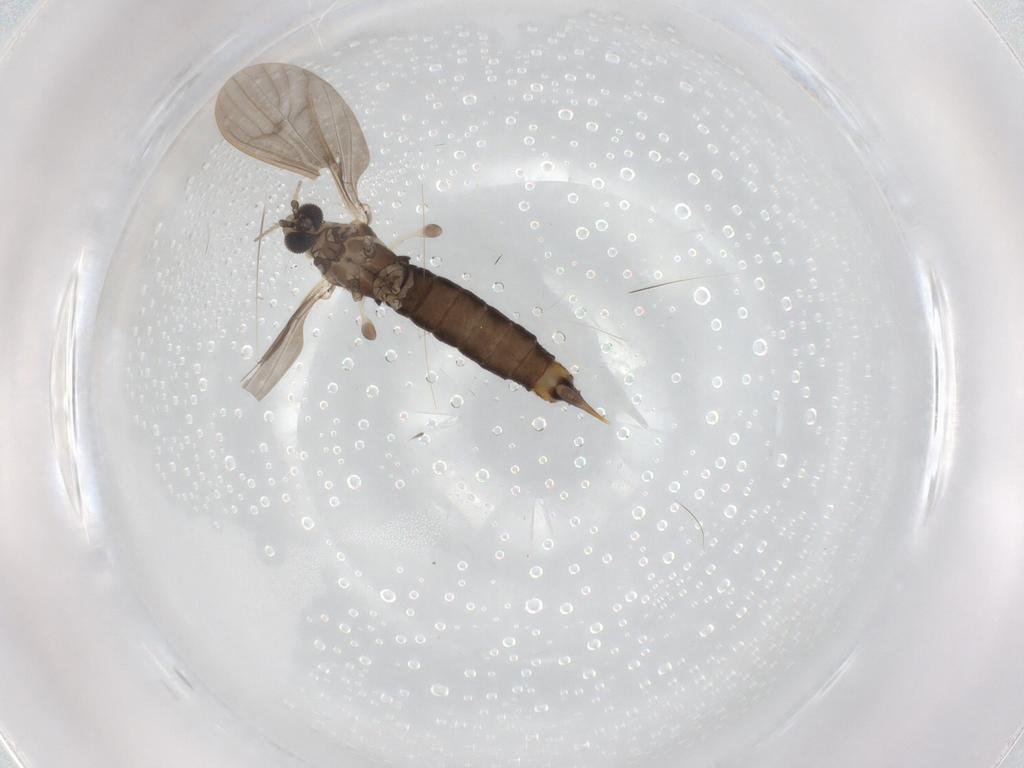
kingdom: Animalia
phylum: Arthropoda
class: Insecta
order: Diptera
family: Limoniidae
